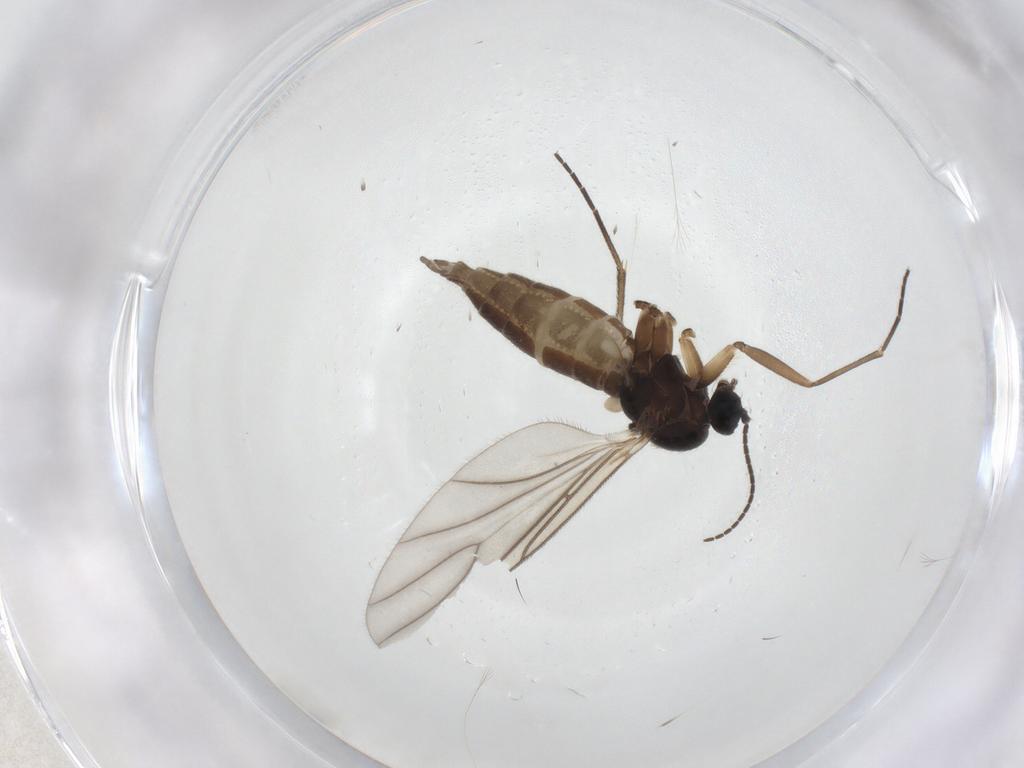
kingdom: Animalia
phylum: Arthropoda
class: Insecta
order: Diptera
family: Sciaridae
